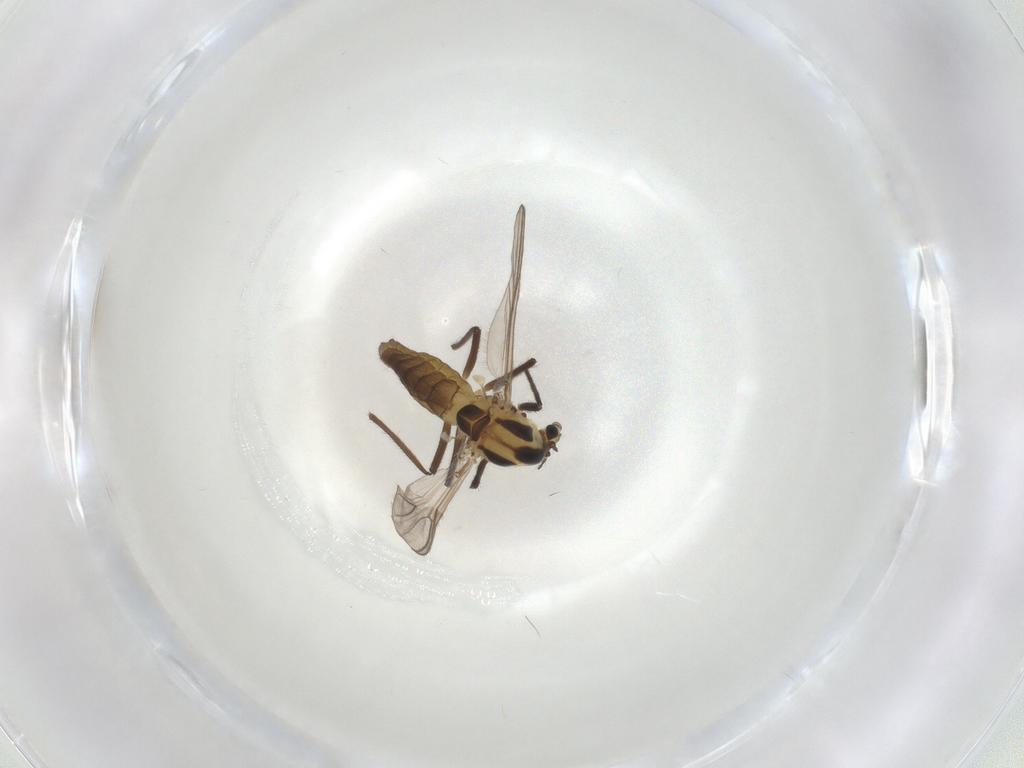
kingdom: Animalia
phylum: Arthropoda
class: Insecta
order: Diptera
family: Chironomidae
